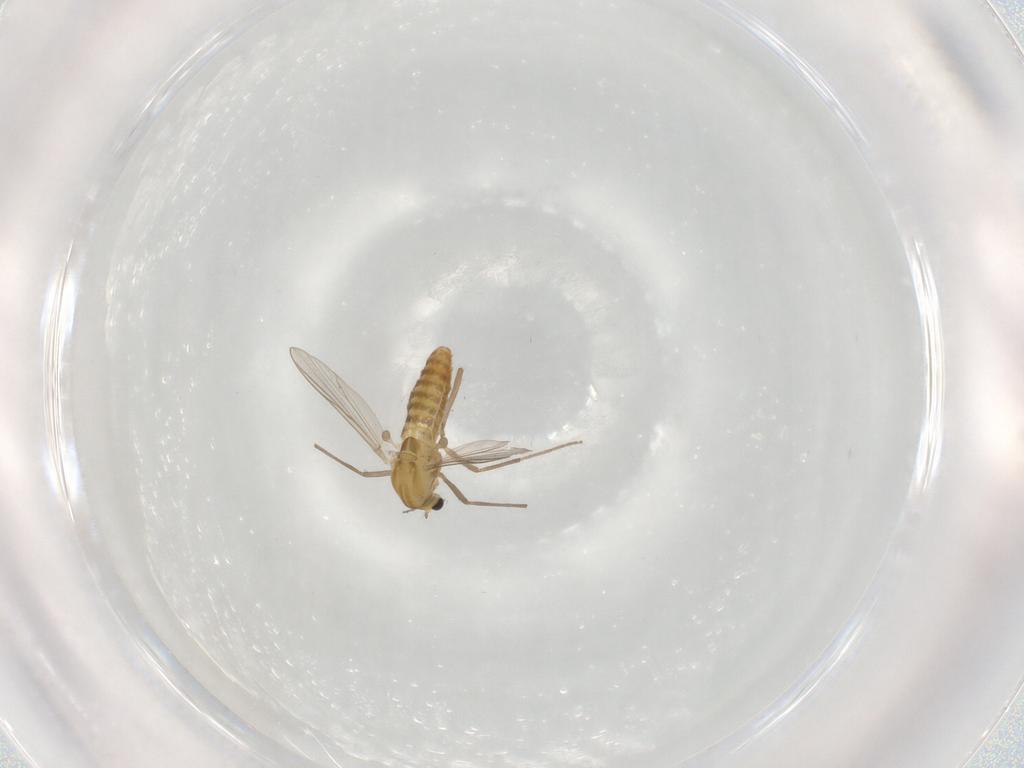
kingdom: Animalia
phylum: Arthropoda
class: Insecta
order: Diptera
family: Chironomidae
